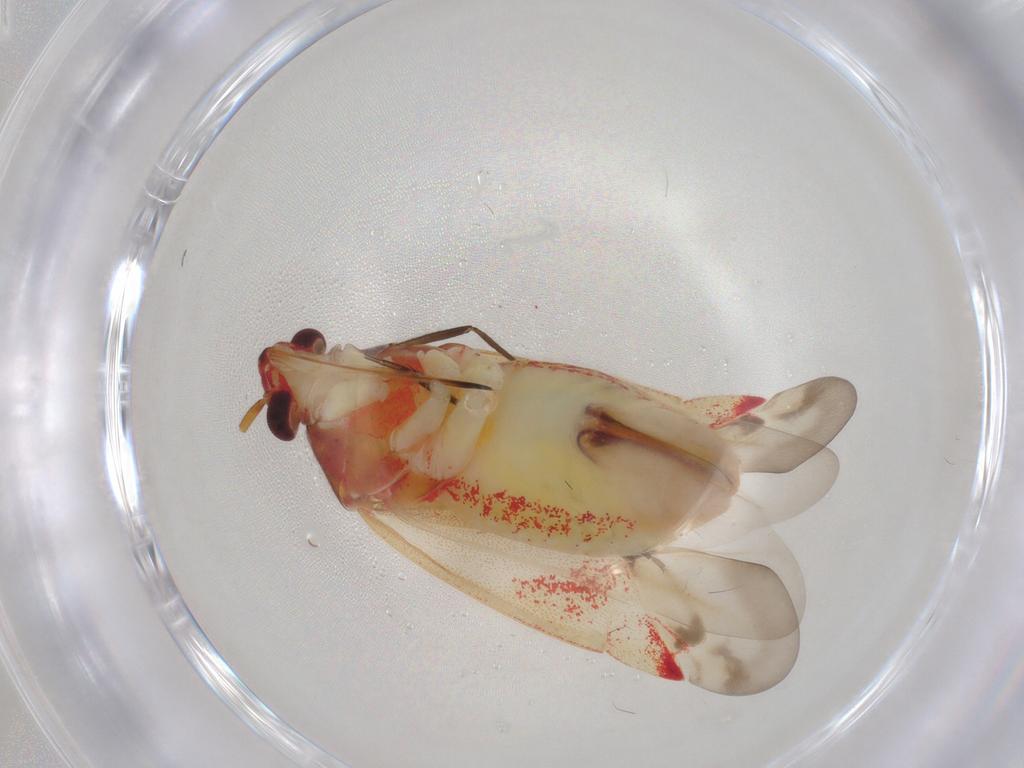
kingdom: Animalia
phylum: Arthropoda
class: Insecta
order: Hemiptera
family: Miridae
